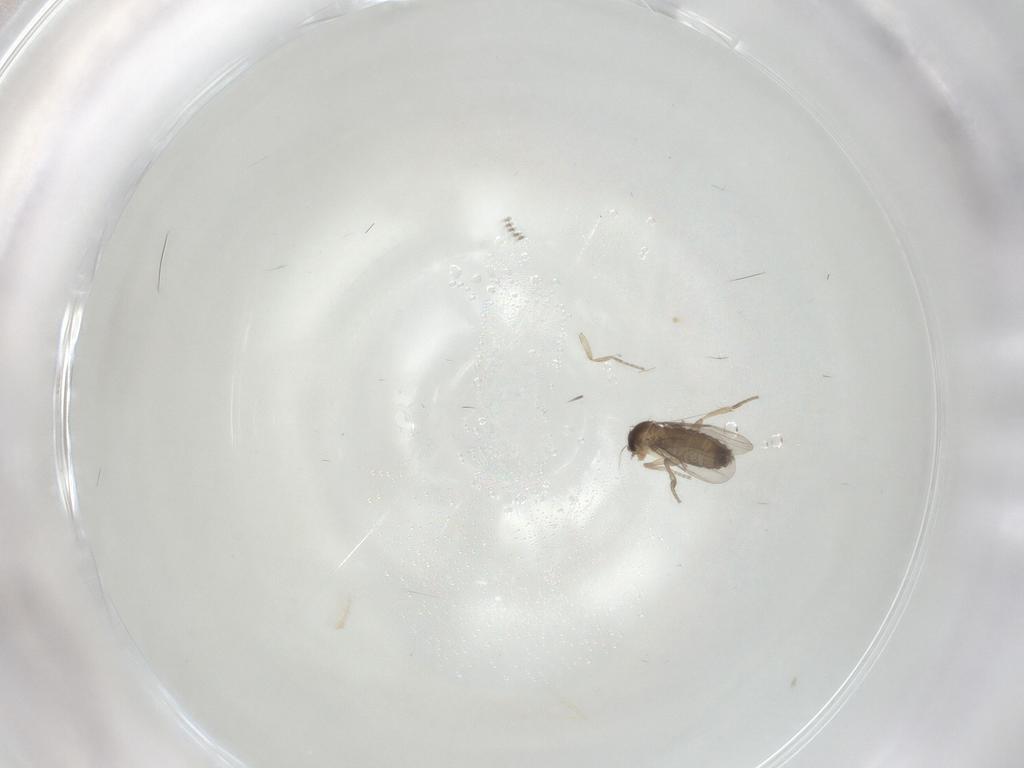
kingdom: Animalia
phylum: Arthropoda
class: Insecta
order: Diptera
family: Phoridae
